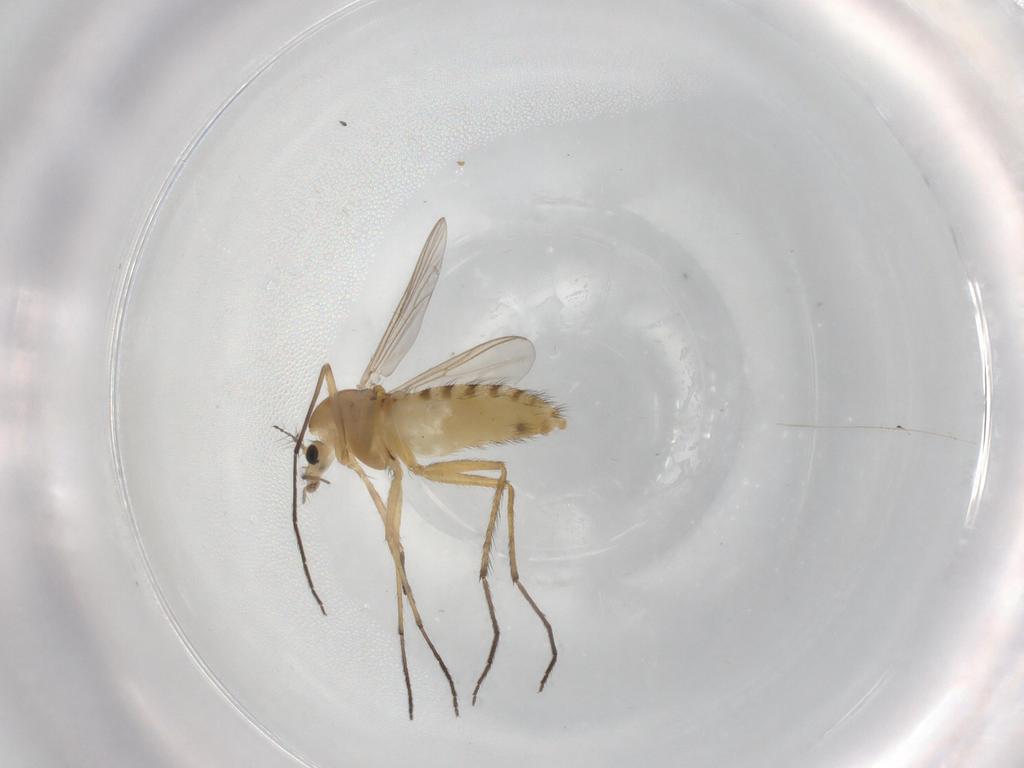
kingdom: Animalia
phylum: Arthropoda
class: Insecta
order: Diptera
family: Chironomidae
